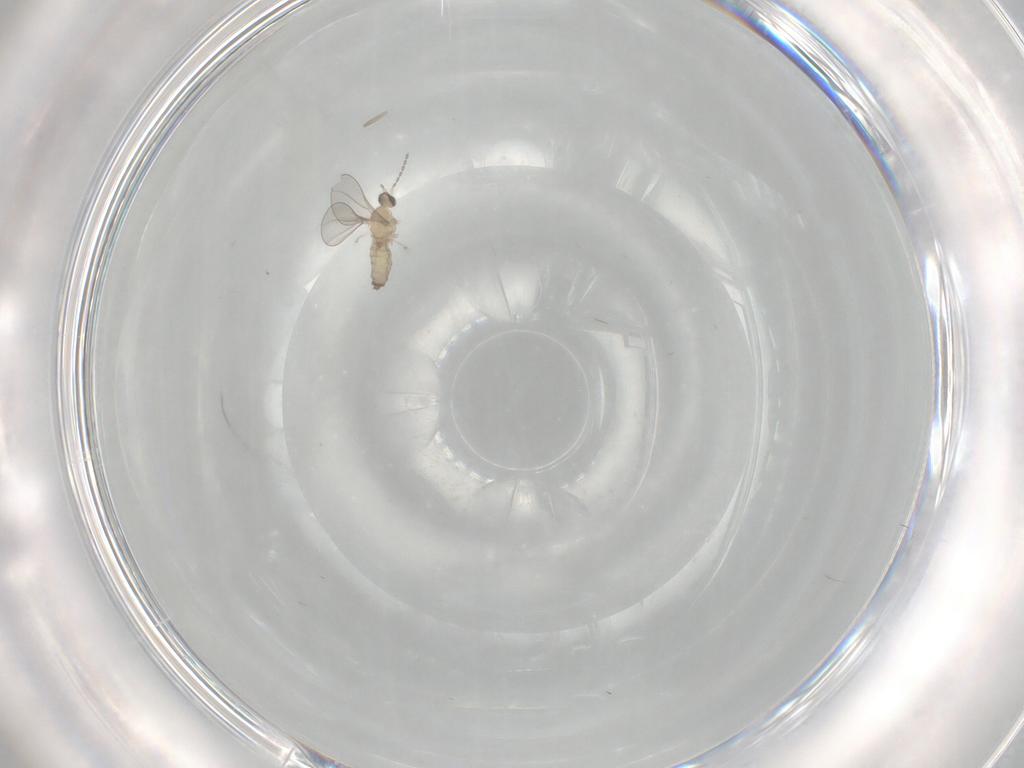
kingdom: Animalia
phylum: Arthropoda
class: Insecta
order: Diptera
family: Cecidomyiidae
